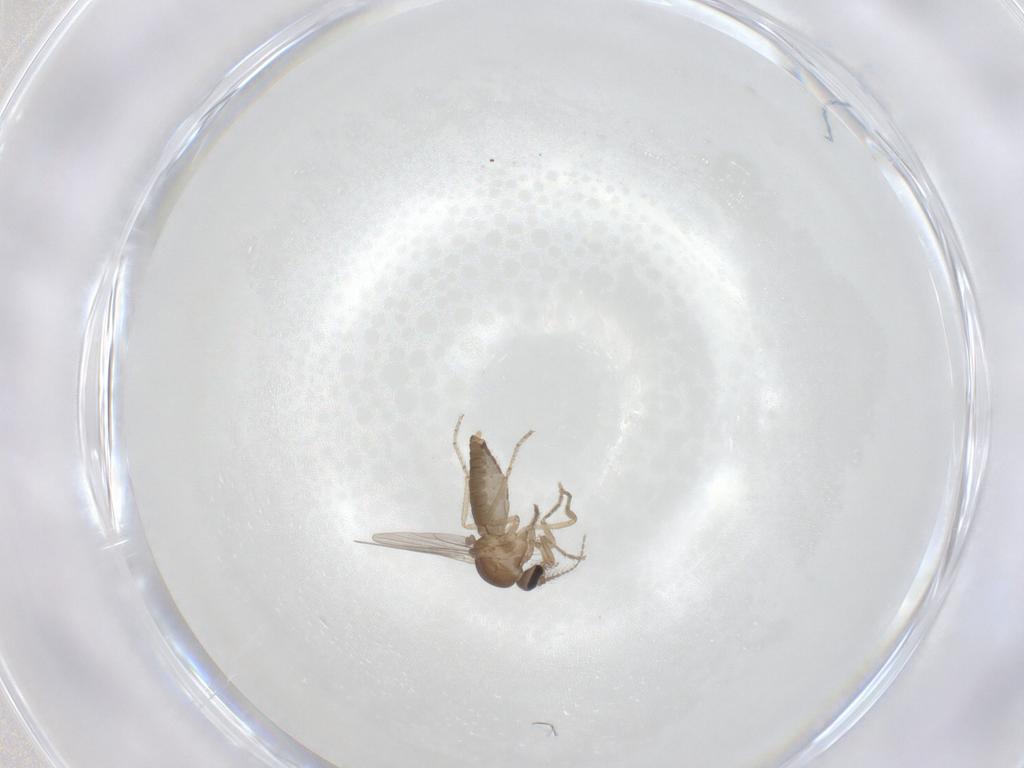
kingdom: Animalia
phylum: Arthropoda
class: Insecta
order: Diptera
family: Ceratopogonidae
